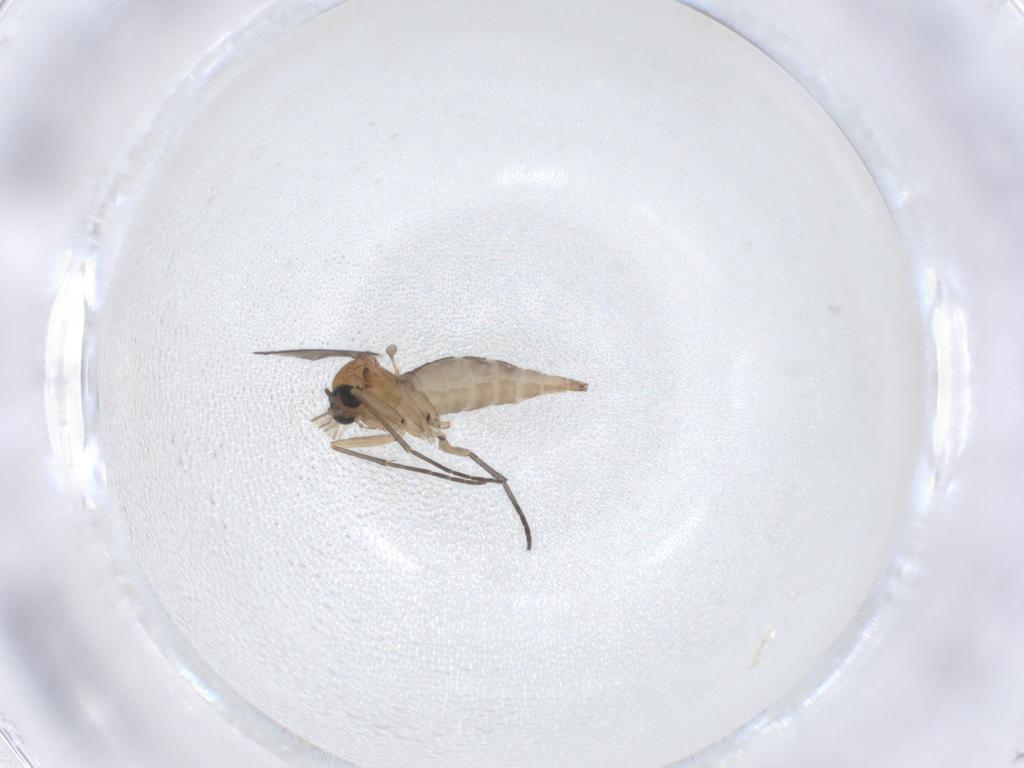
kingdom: Animalia
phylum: Arthropoda
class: Insecta
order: Diptera
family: Sciaridae
